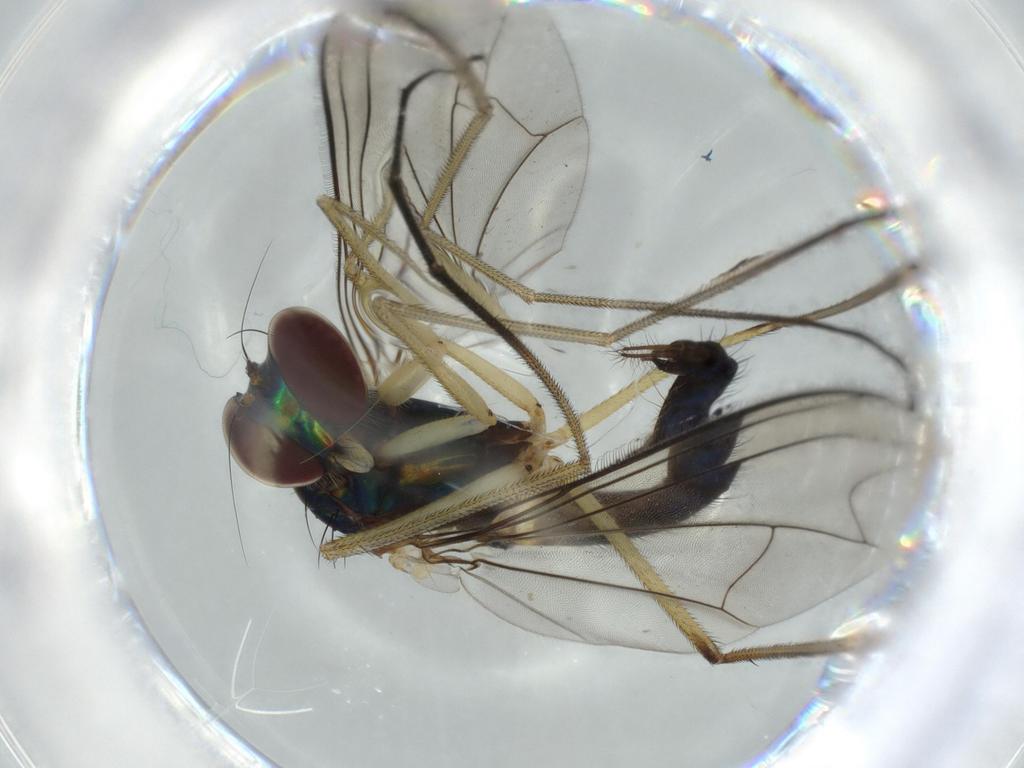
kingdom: Animalia
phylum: Arthropoda
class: Insecta
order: Diptera
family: Dolichopodidae
